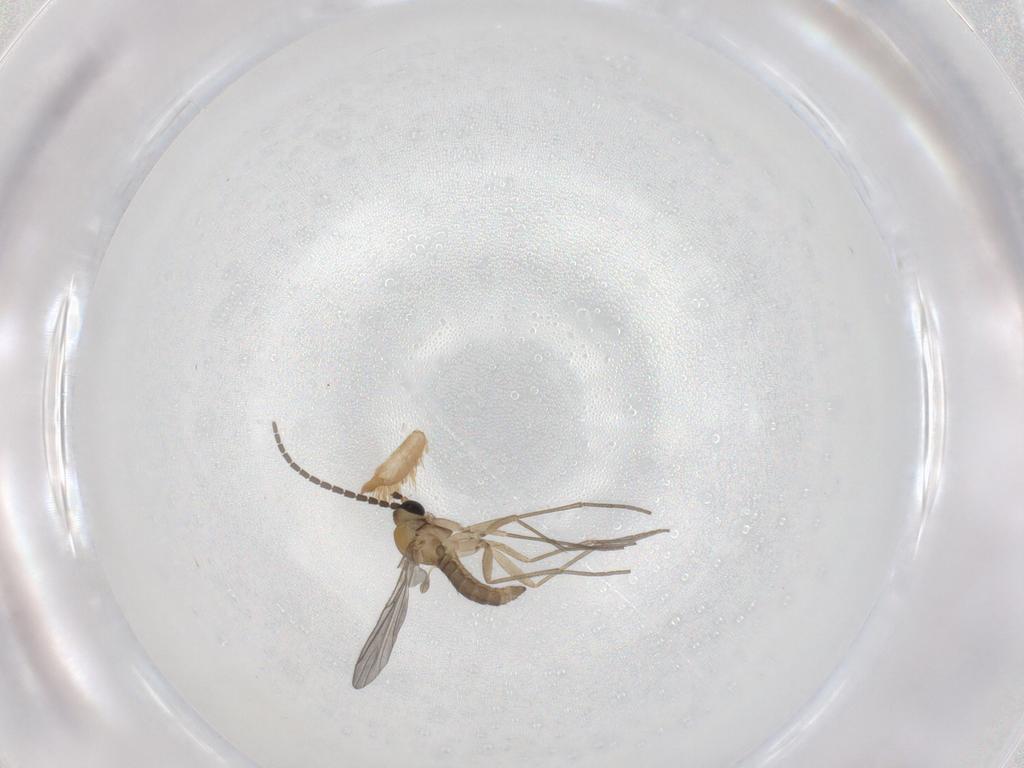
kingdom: Animalia
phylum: Arthropoda
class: Insecta
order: Diptera
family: Sciaridae
